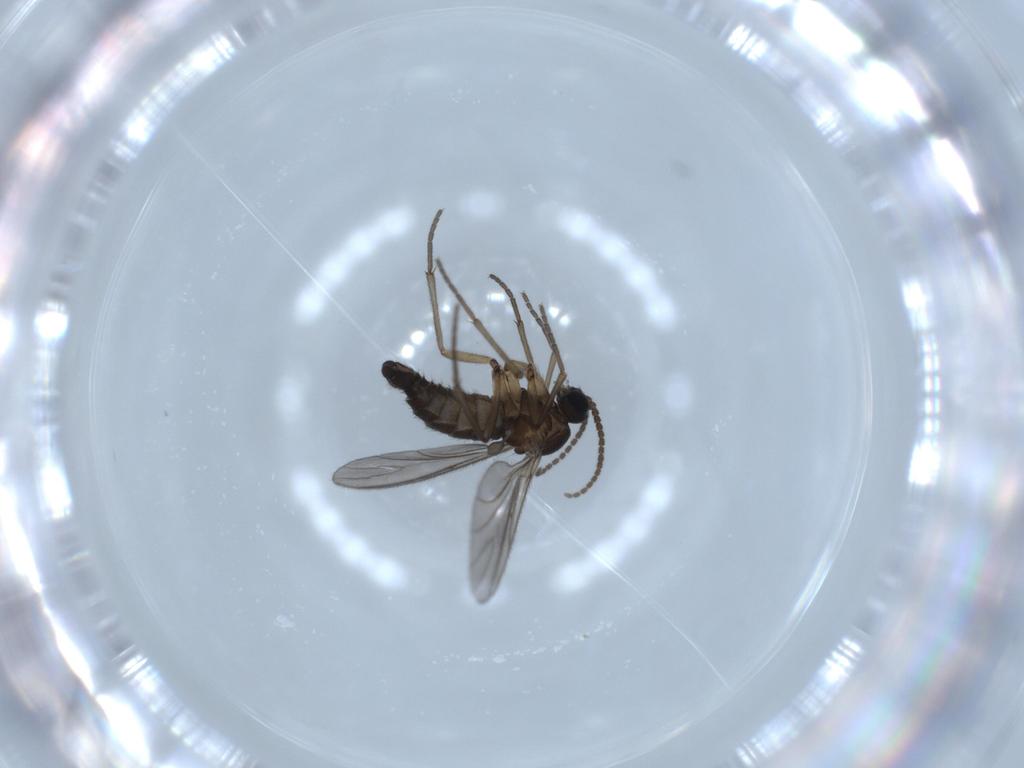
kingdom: Animalia
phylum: Arthropoda
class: Insecta
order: Diptera
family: Sciaridae
